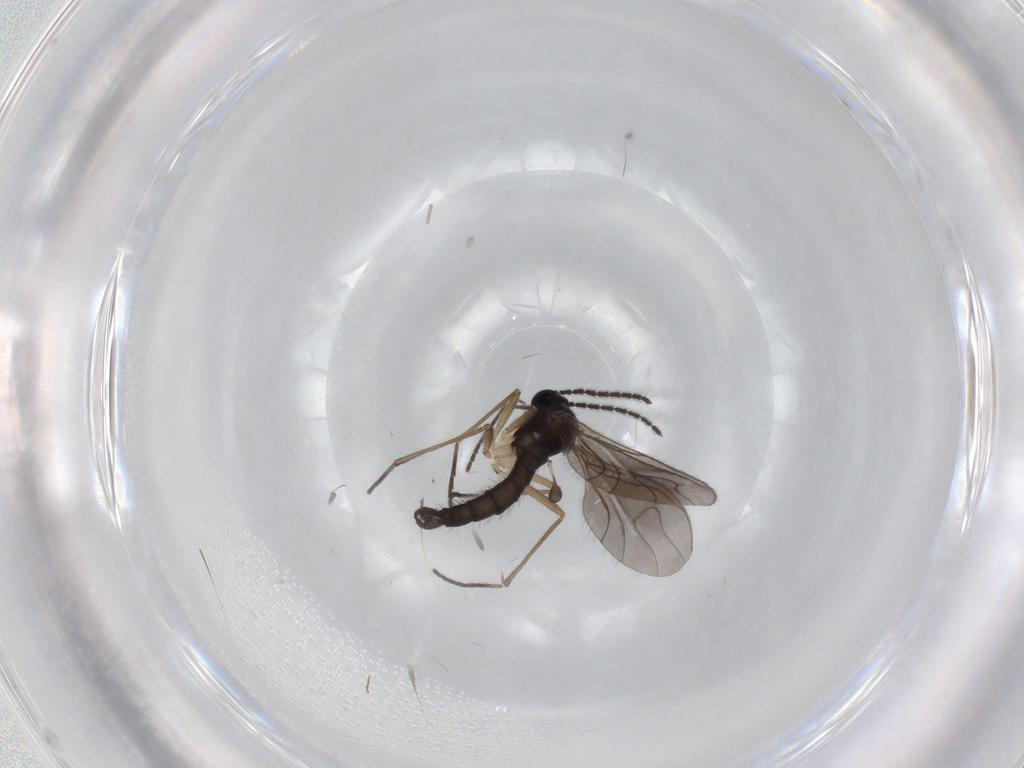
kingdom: Animalia
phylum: Arthropoda
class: Insecta
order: Diptera
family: Sciaridae
